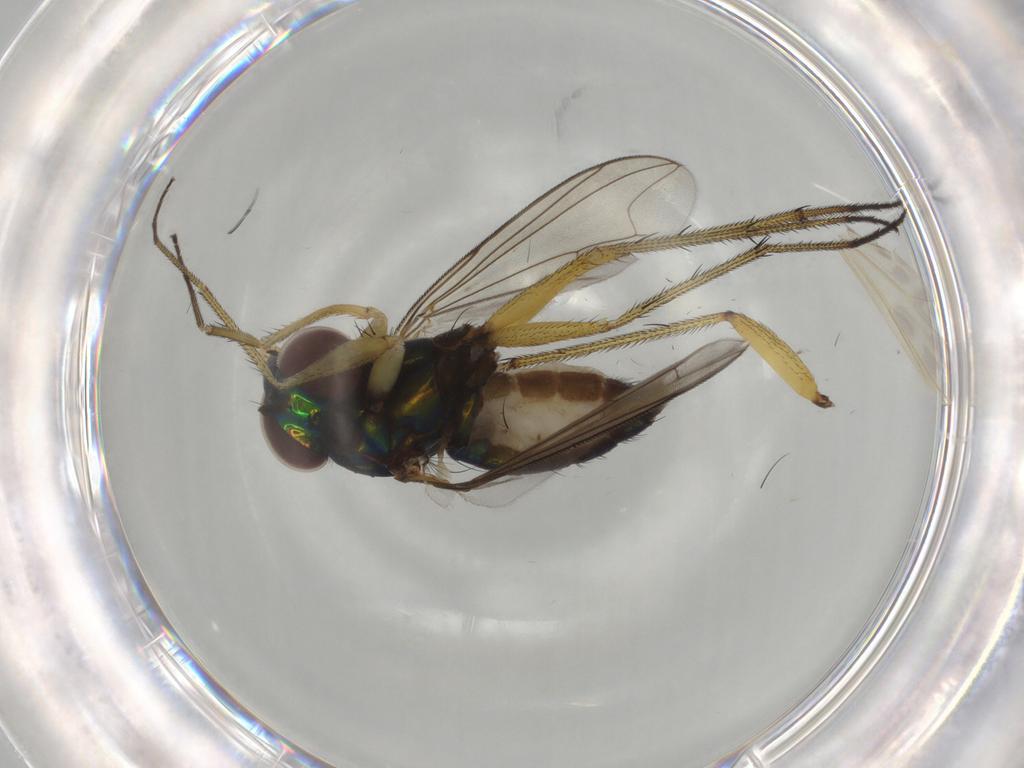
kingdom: Animalia
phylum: Arthropoda
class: Insecta
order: Diptera
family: Dolichopodidae
